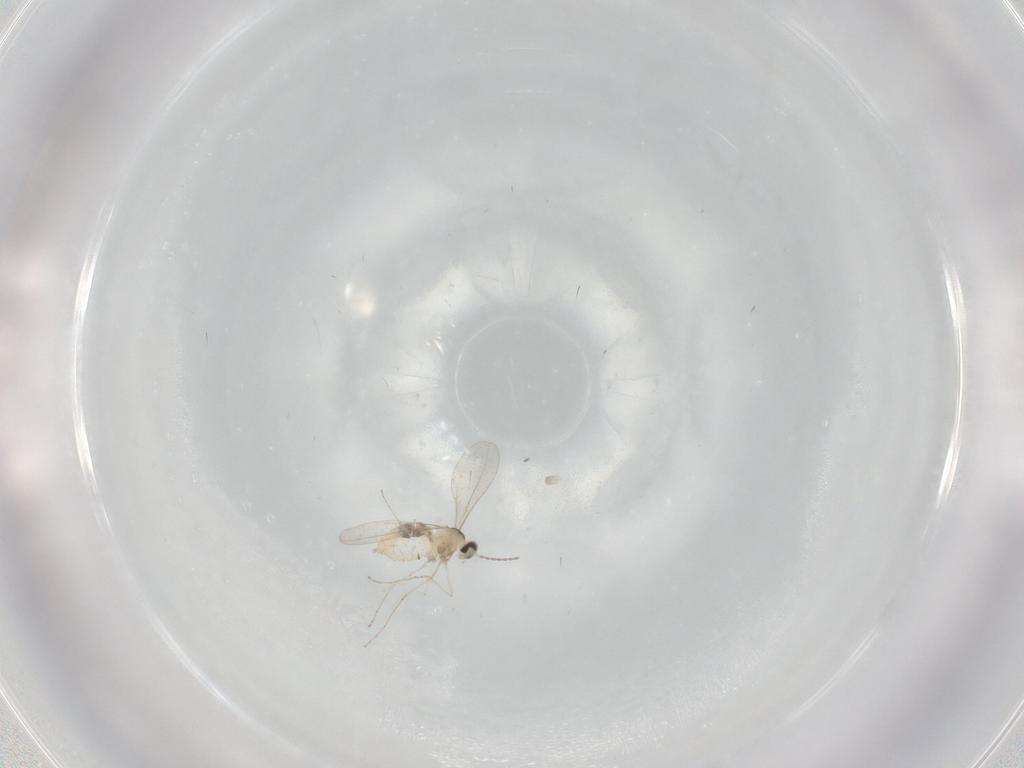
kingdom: Animalia
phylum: Arthropoda
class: Insecta
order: Diptera
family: Cecidomyiidae
